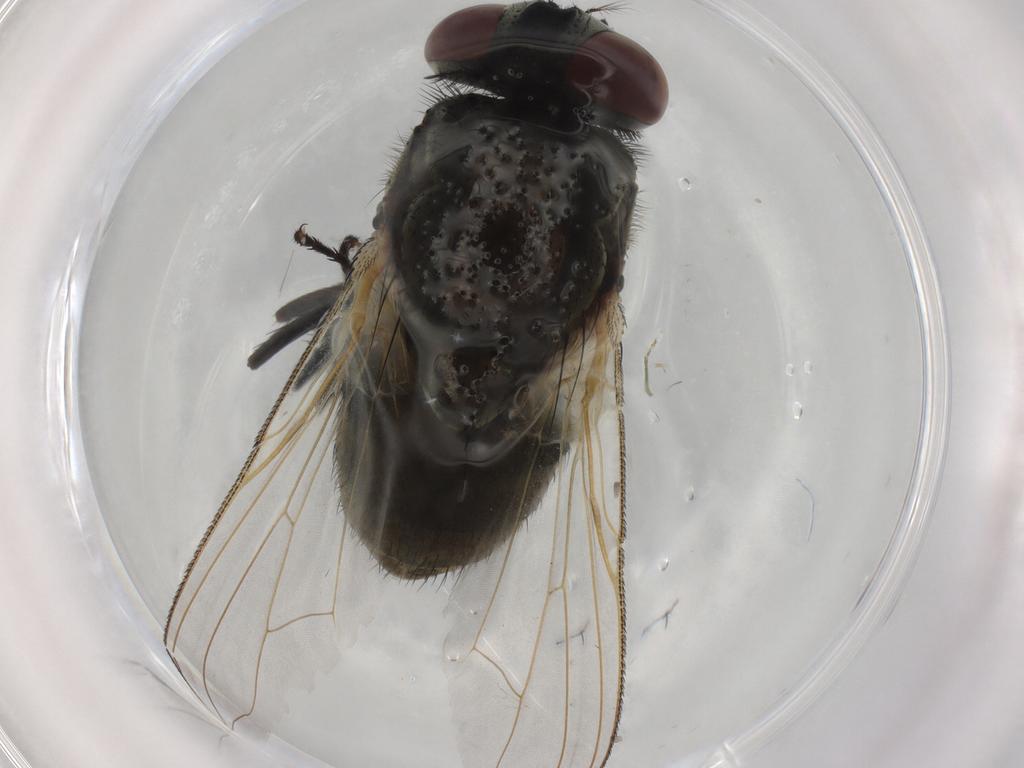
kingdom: Animalia
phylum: Arthropoda
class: Insecta
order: Diptera
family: Muscidae
